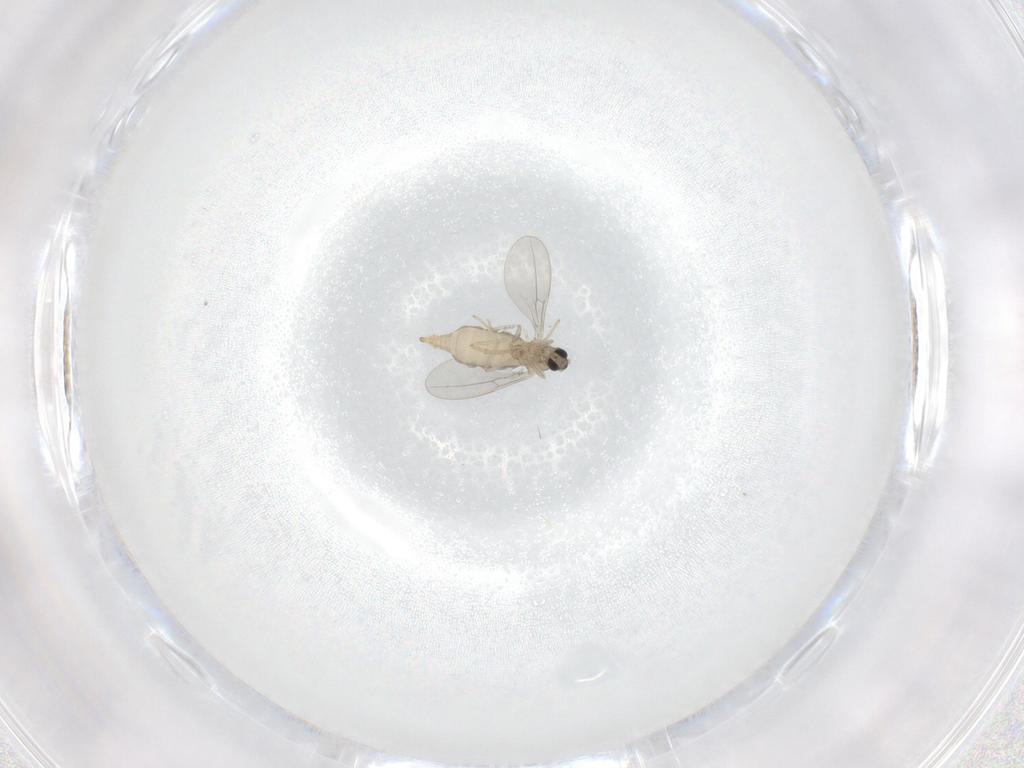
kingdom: Animalia
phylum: Arthropoda
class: Insecta
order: Diptera
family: Cecidomyiidae
